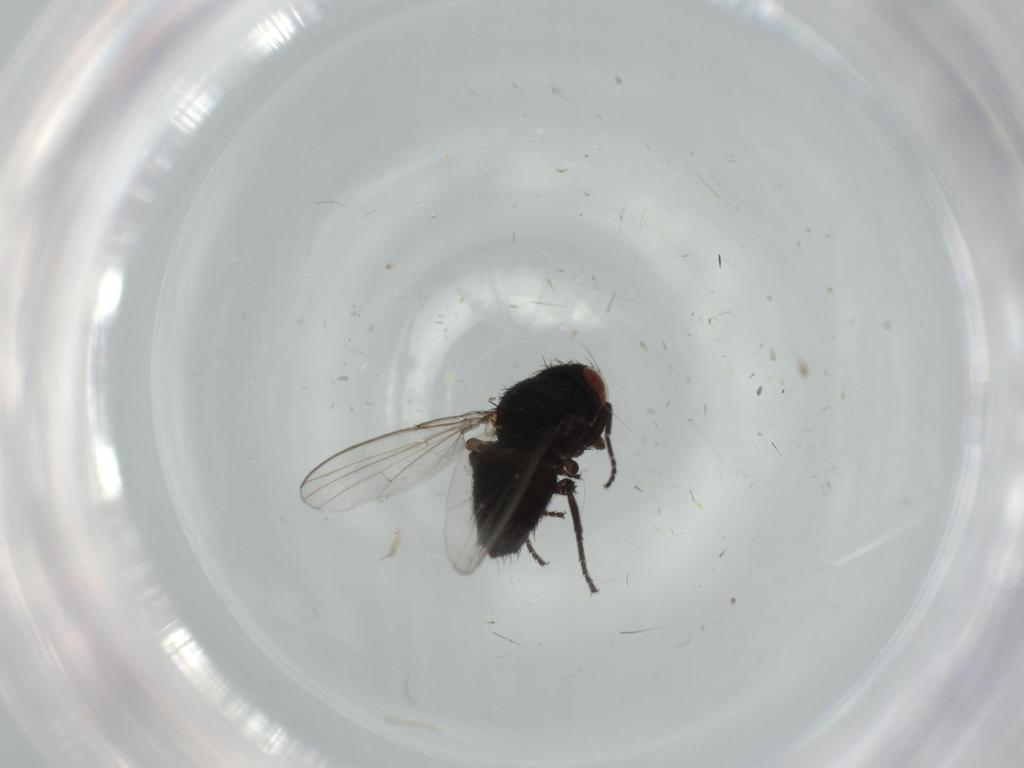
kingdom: Animalia
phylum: Arthropoda
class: Insecta
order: Diptera
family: Milichiidae
